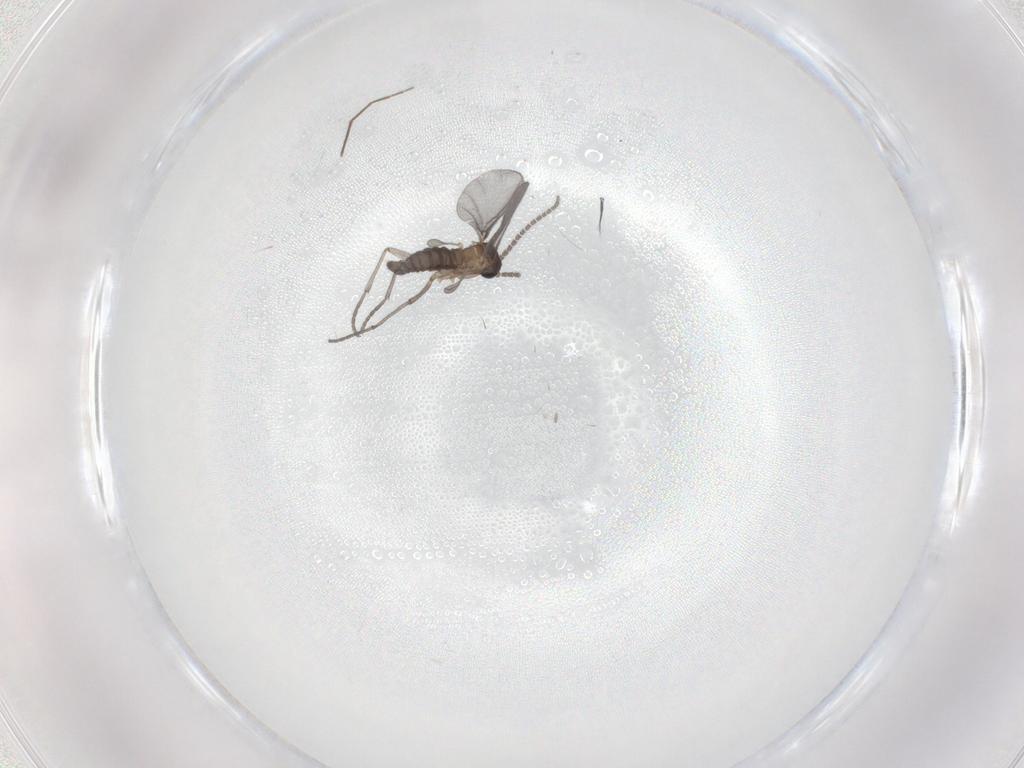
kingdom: Animalia
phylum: Arthropoda
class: Insecta
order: Diptera
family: Sciaridae
